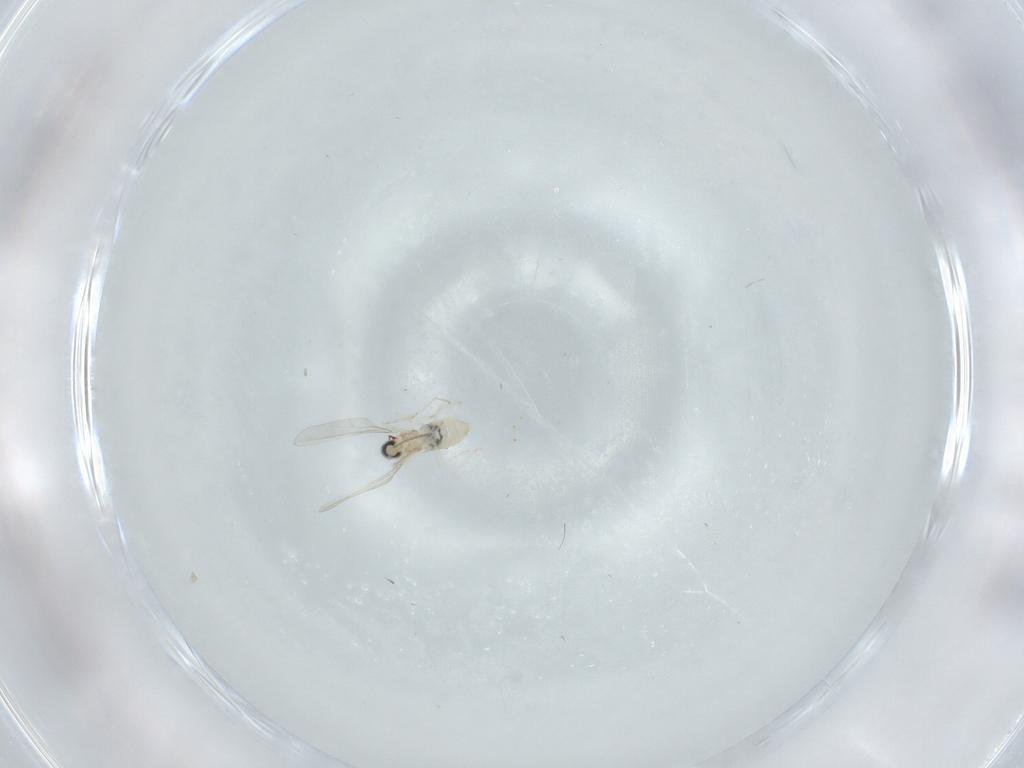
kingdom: Animalia
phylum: Arthropoda
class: Insecta
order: Diptera
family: Cecidomyiidae
